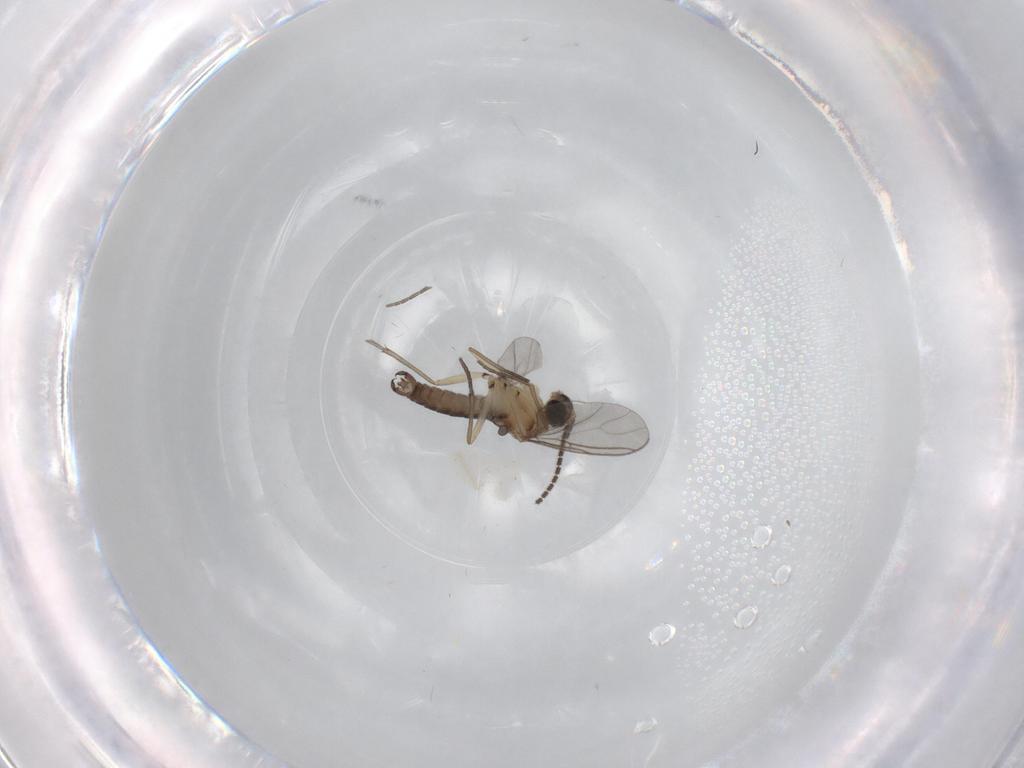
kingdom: Animalia
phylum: Arthropoda
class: Insecta
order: Diptera
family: Sciaridae
